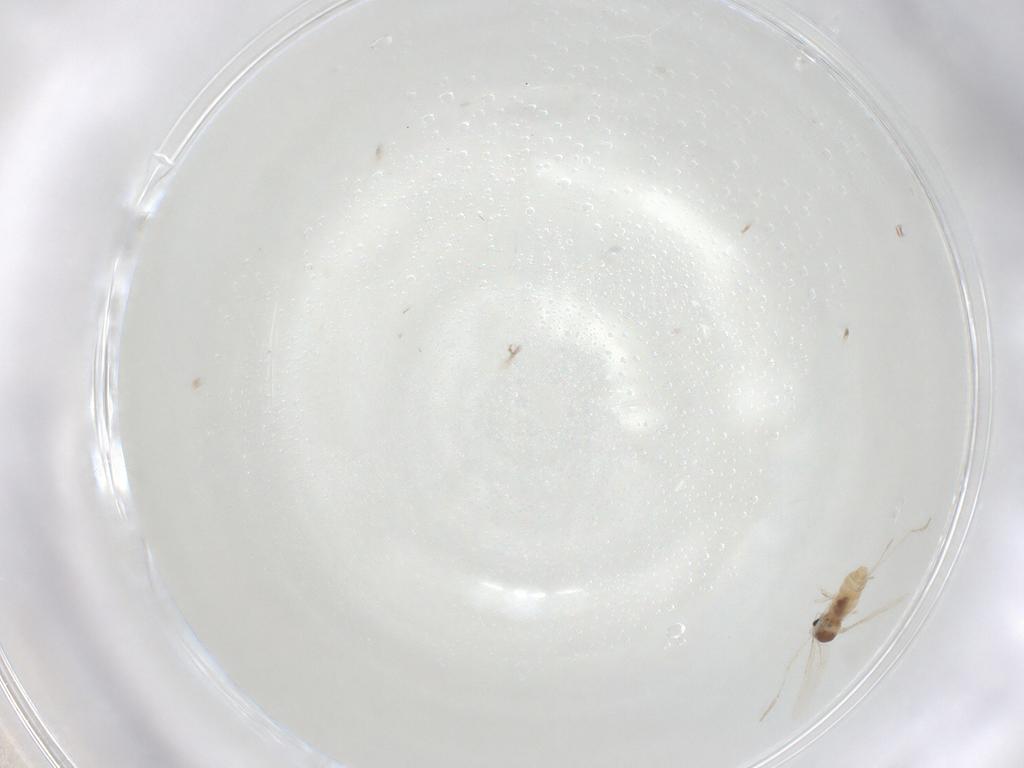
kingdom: Animalia
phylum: Arthropoda
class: Insecta
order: Diptera
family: Cecidomyiidae
